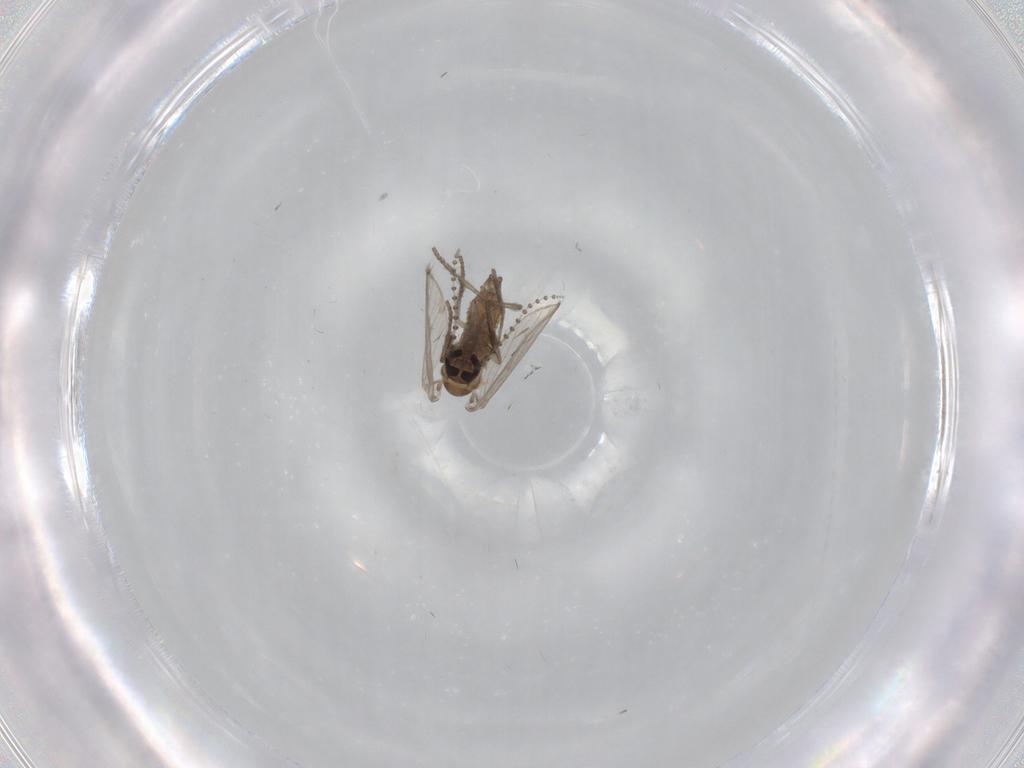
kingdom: Animalia
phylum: Arthropoda
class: Insecta
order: Diptera
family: Psychodidae
